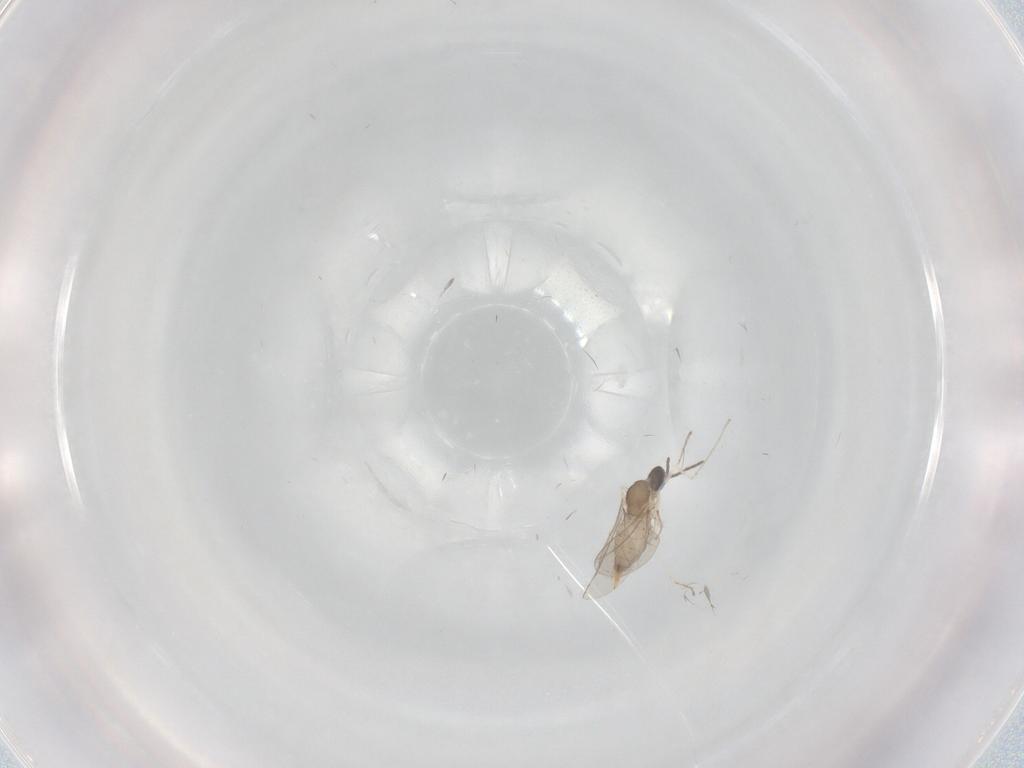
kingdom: Animalia
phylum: Arthropoda
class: Insecta
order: Diptera
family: Cecidomyiidae
